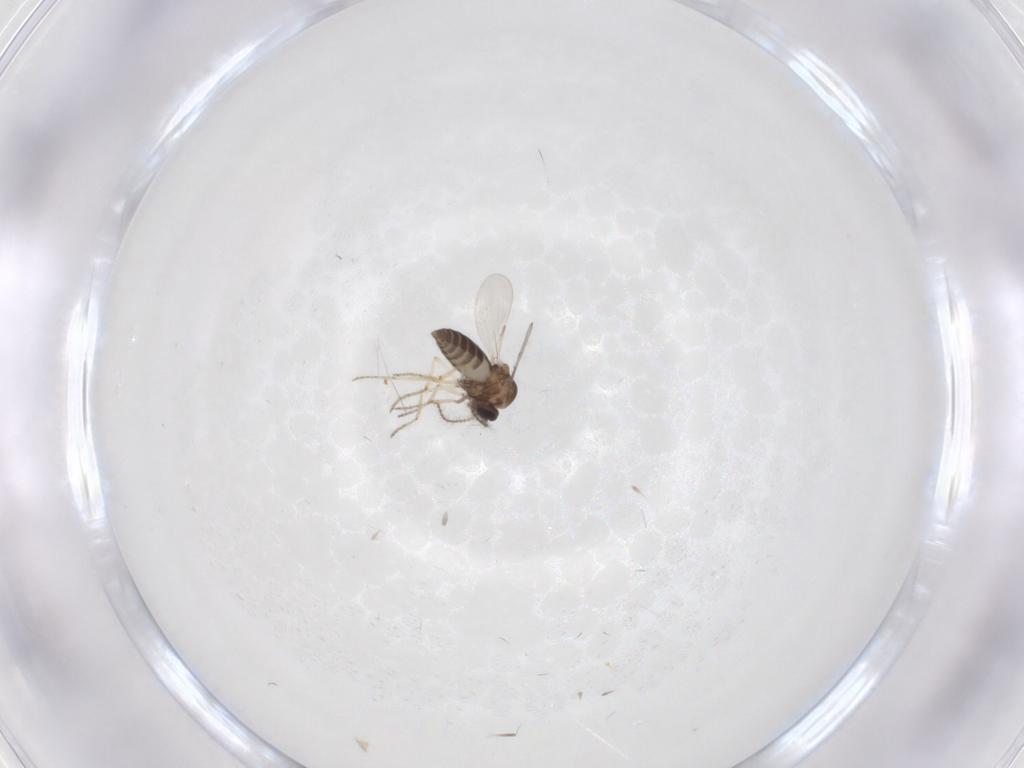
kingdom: Animalia
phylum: Arthropoda
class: Insecta
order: Diptera
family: Ceratopogonidae
